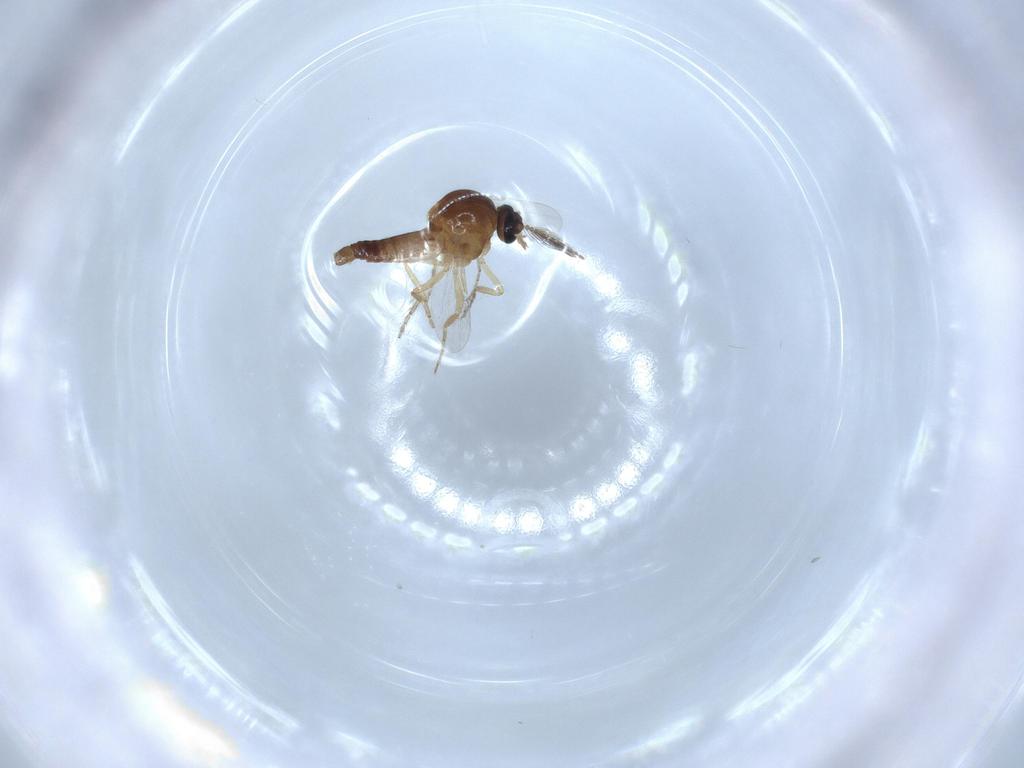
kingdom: Animalia
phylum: Arthropoda
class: Insecta
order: Diptera
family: Ceratopogonidae
